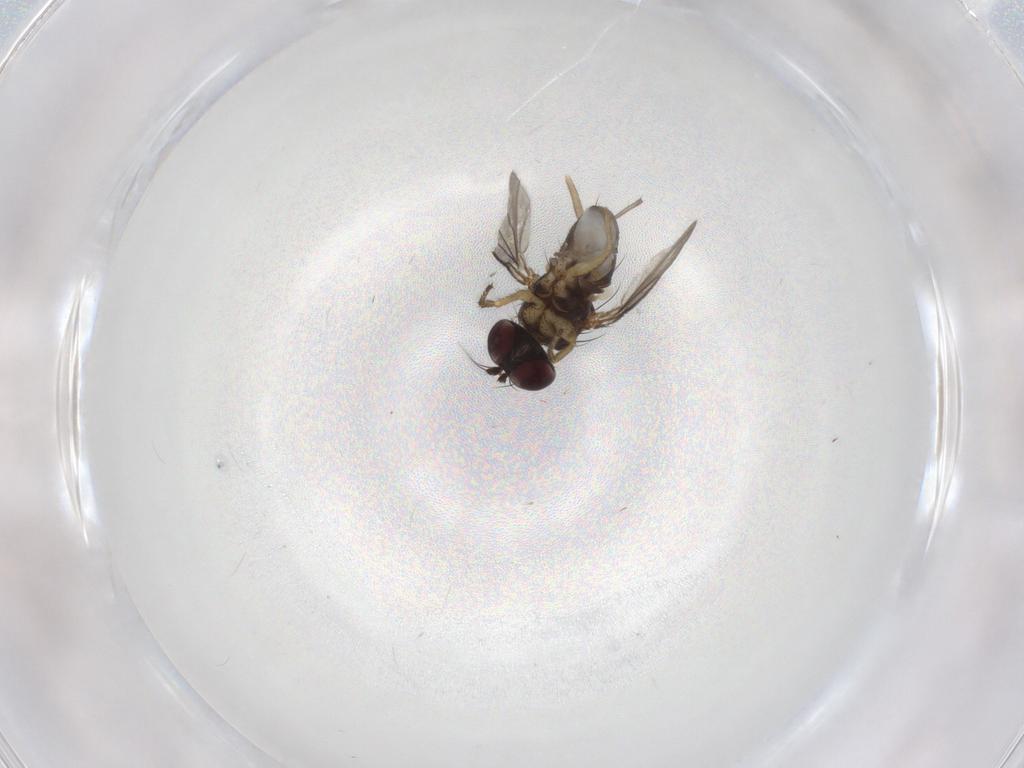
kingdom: Animalia
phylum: Arthropoda
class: Insecta
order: Diptera
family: Chironomidae
